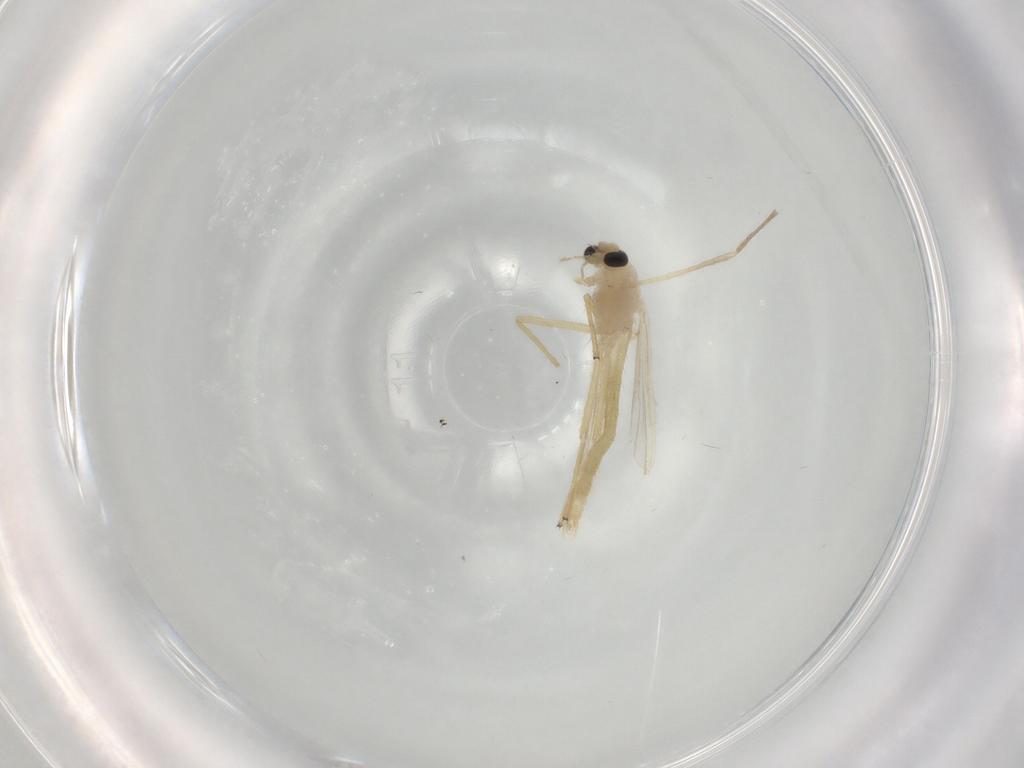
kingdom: Animalia
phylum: Arthropoda
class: Insecta
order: Diptera
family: Chironomidae
